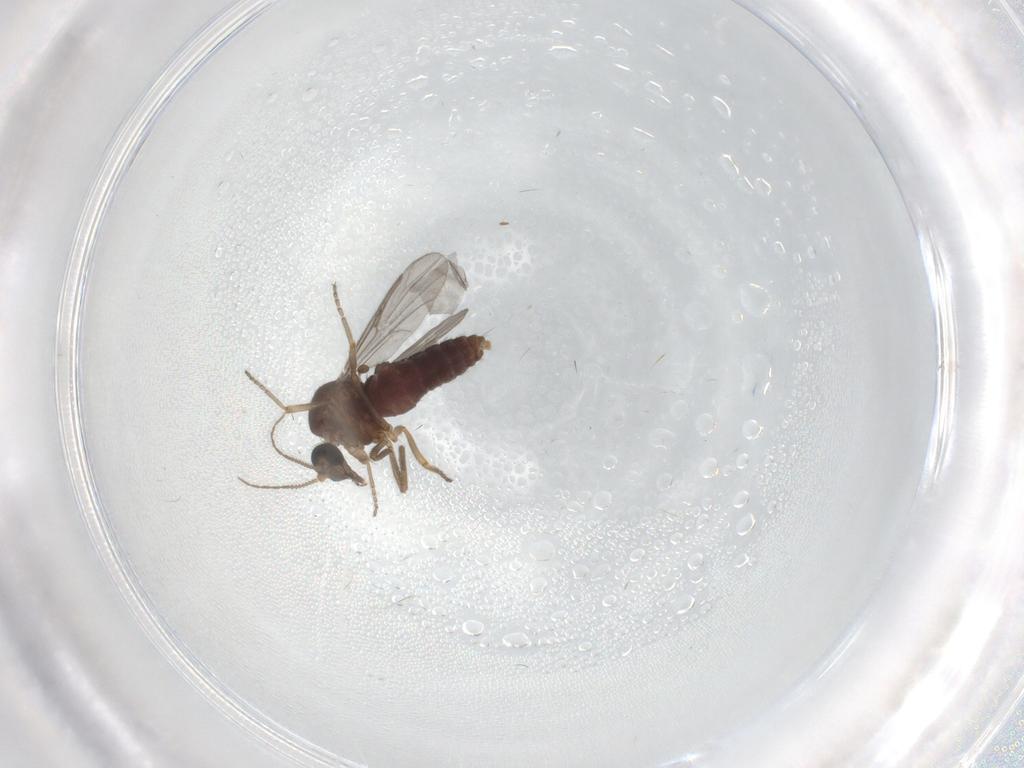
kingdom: Animalia
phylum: Arthropoda
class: Insecta
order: Diptera
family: Ceratopogonidae
